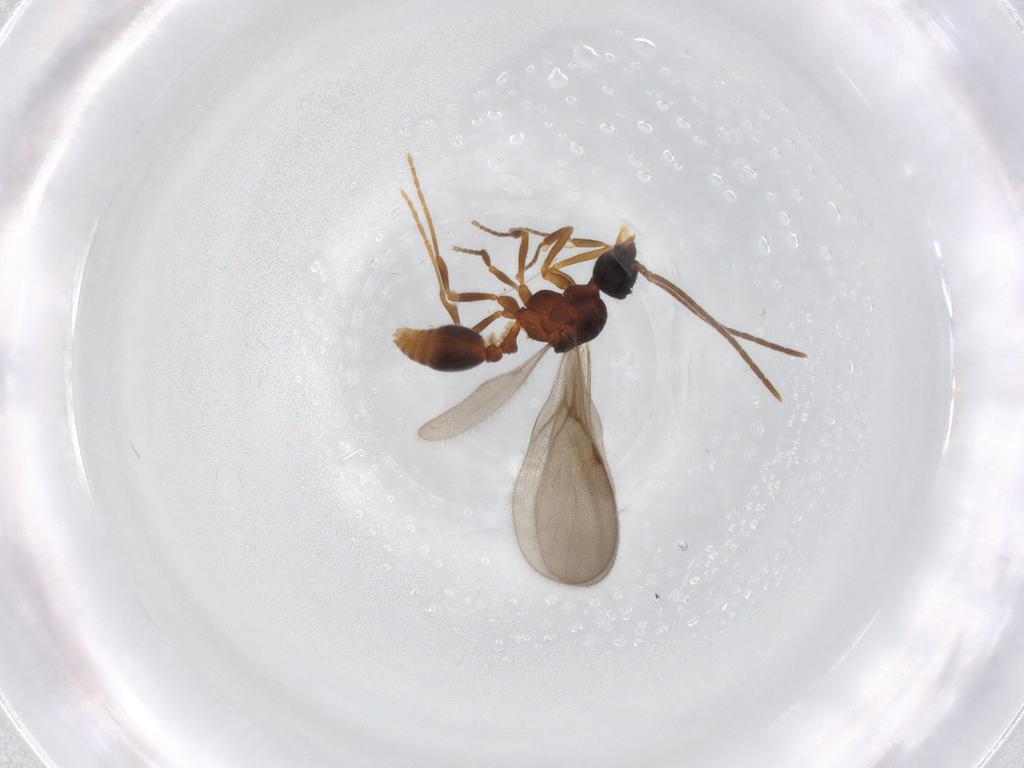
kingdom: Animalia
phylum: Arthropoda
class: Insecta
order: Hymenoptera
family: Formicidae
